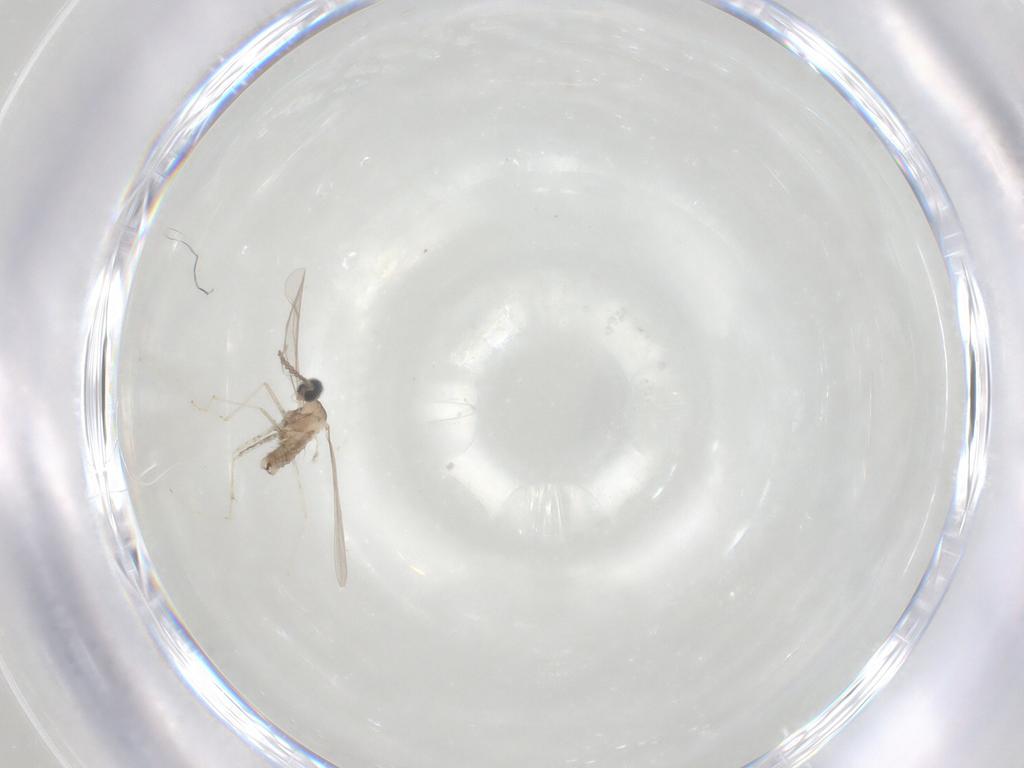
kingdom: Animalia
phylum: Arthropoda
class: Insecta
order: Diptera
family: Cecidomyiidae
